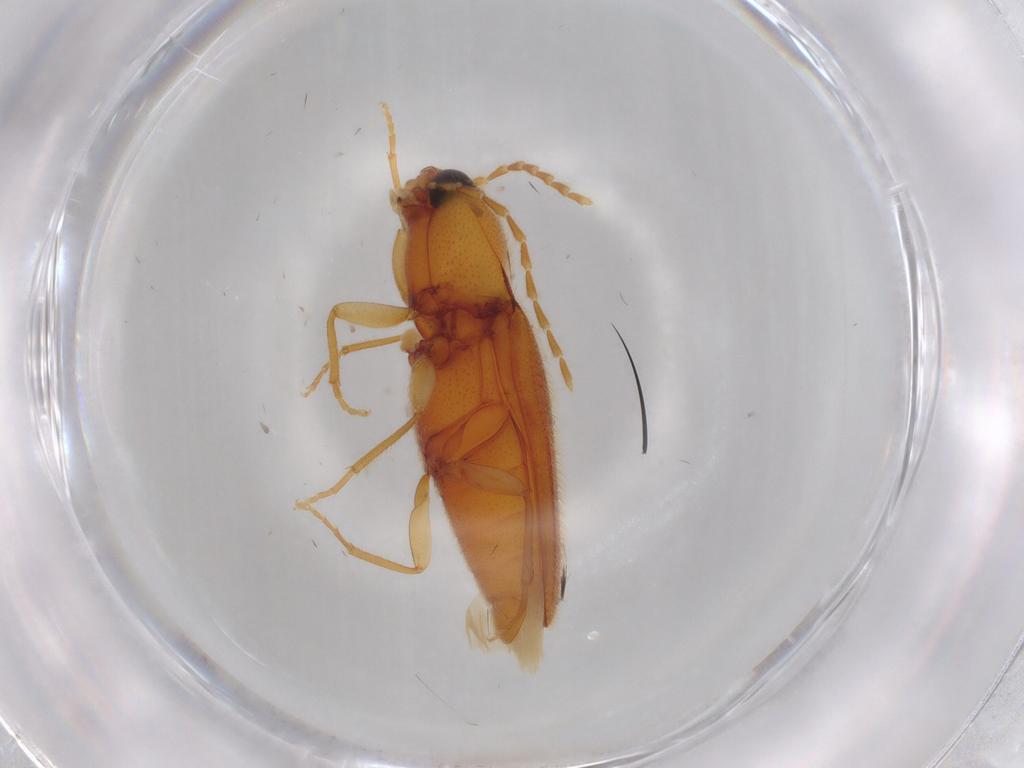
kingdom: Animalia
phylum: Arthropoda
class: Insecta
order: Coleoptera
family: Elateridae
